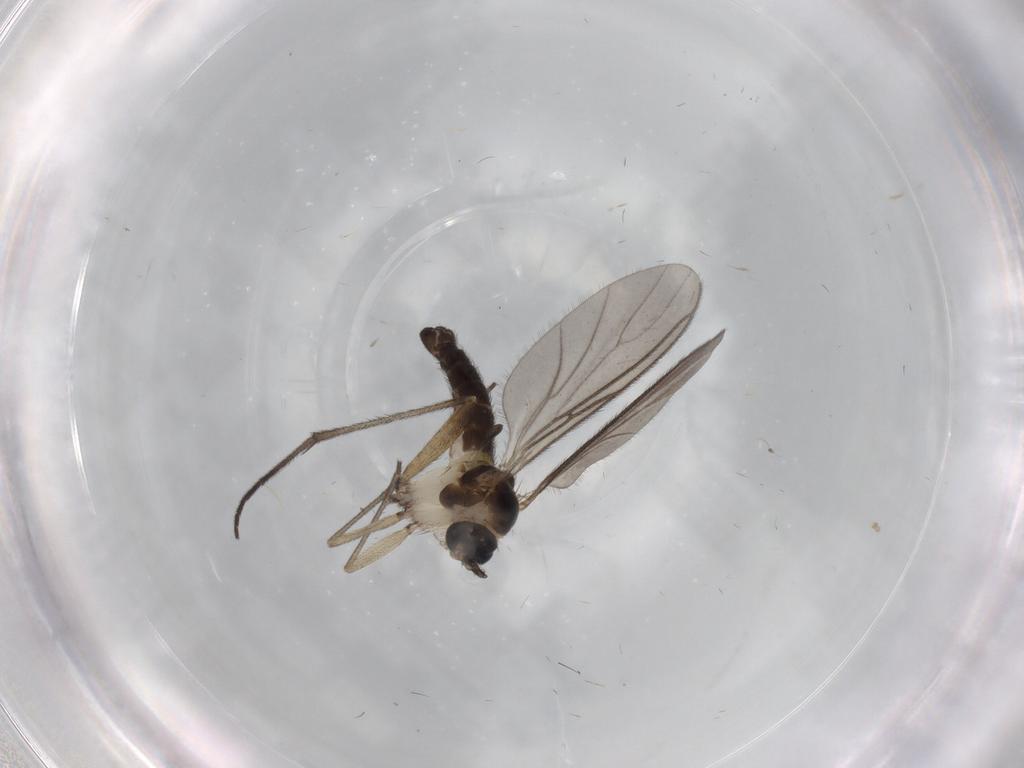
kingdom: Animalia
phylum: Arthropoda
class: Insecta
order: Diptera
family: Sciaridae
